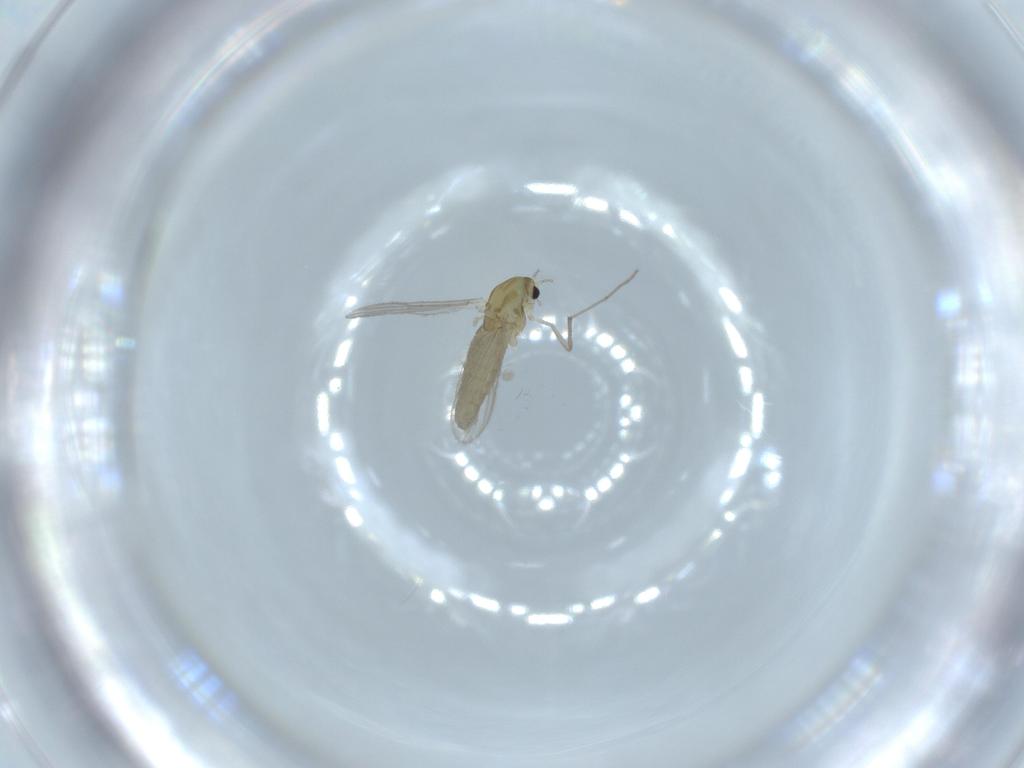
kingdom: Animalia
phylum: Arthropoda
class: Insecta
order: Diptera
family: Chironomidae
